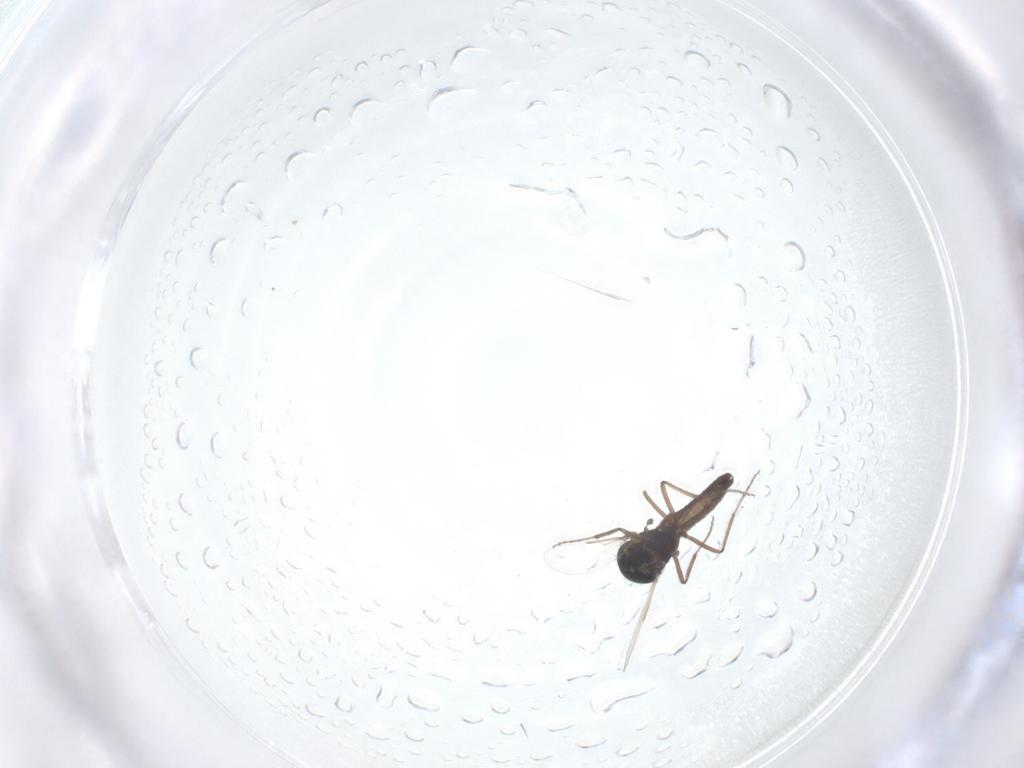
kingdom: Animalia
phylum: Arthropoda
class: Insecta
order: Diptera
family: Ceratopogonidae
